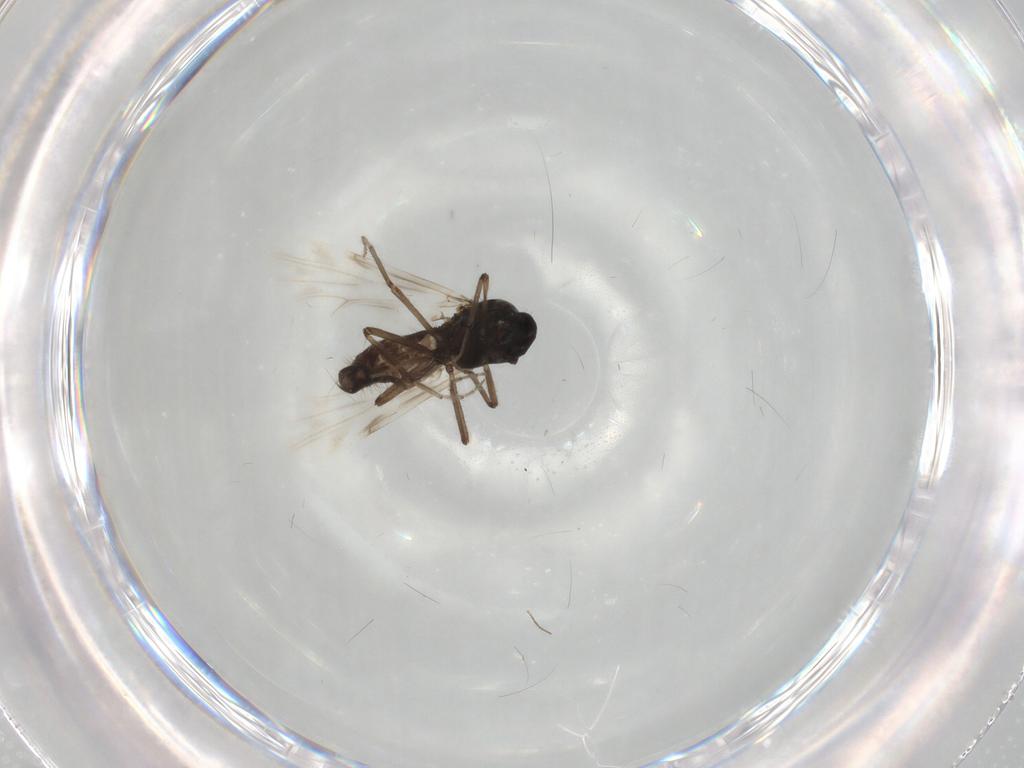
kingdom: Animalia
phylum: Arthropoda
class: Insecta
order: Diptera
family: Ceratopogonidae
